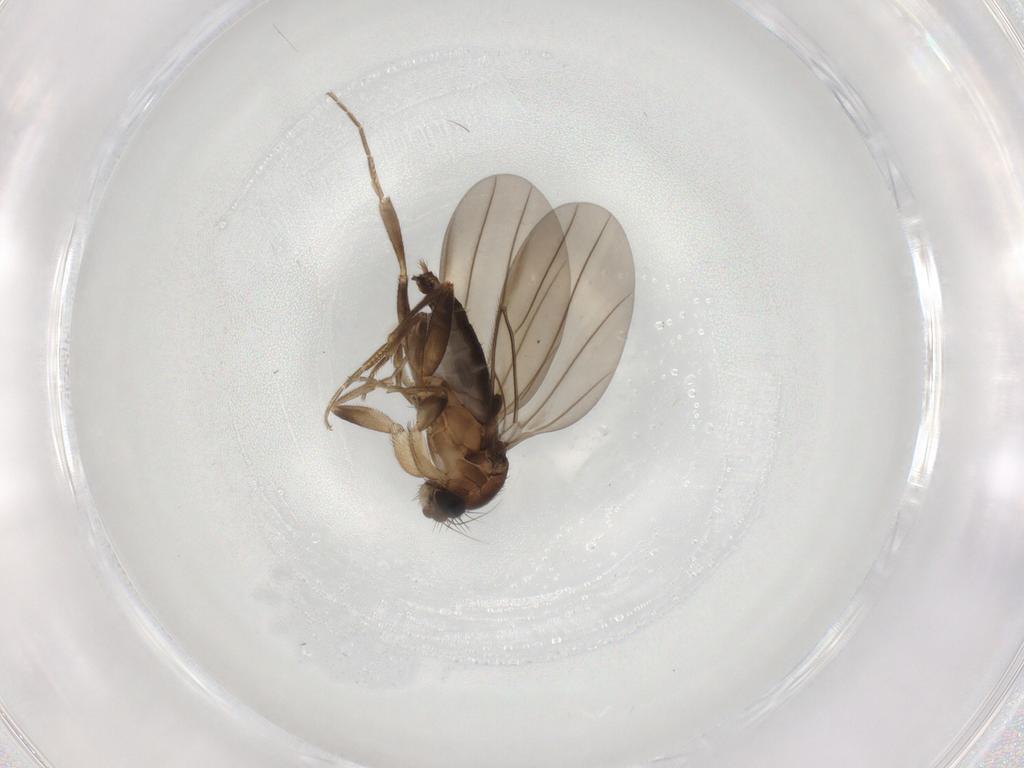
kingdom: Animalia
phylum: Arthropoda
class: Insecta
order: Diptera
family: Phoridae
